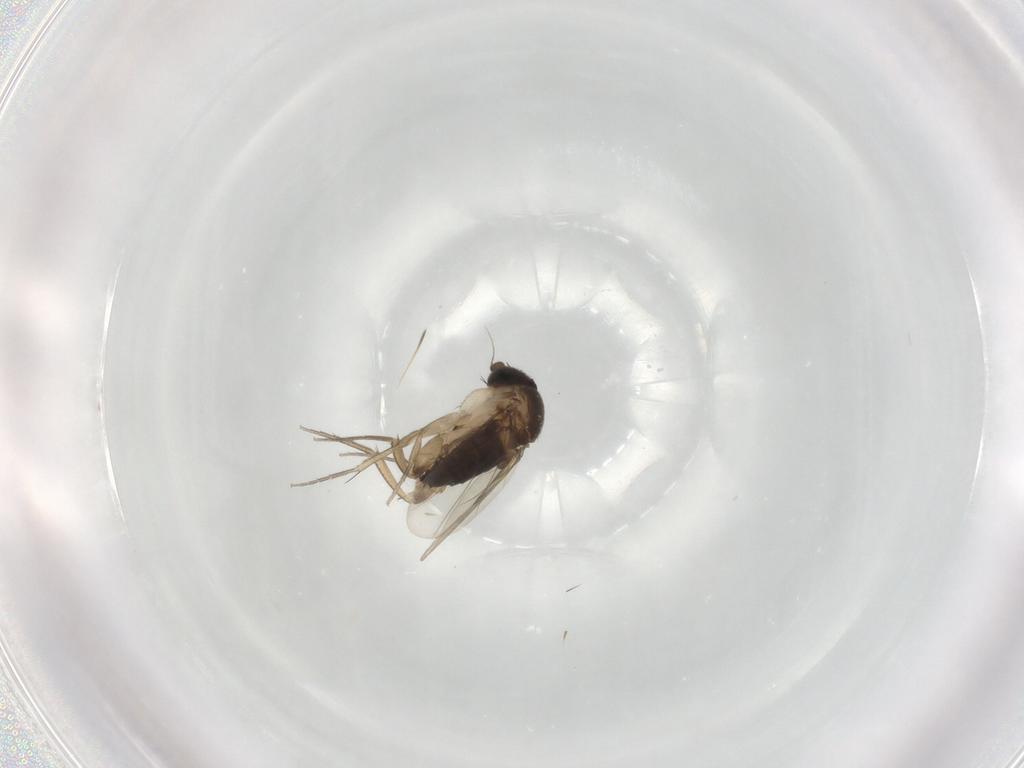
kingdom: Animalia
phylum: Arthropoda
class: Insecta
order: Diptera
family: Phoridae
